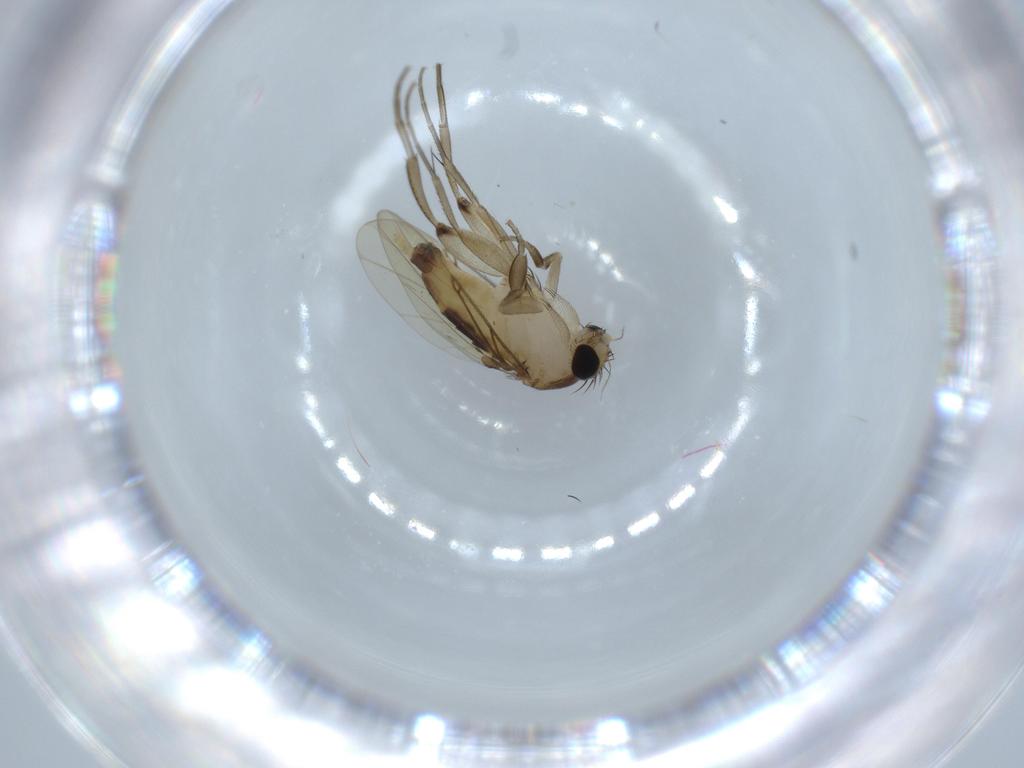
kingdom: Animalia
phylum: Arthropoda
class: Insecta
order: Diptera
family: Phoridae
